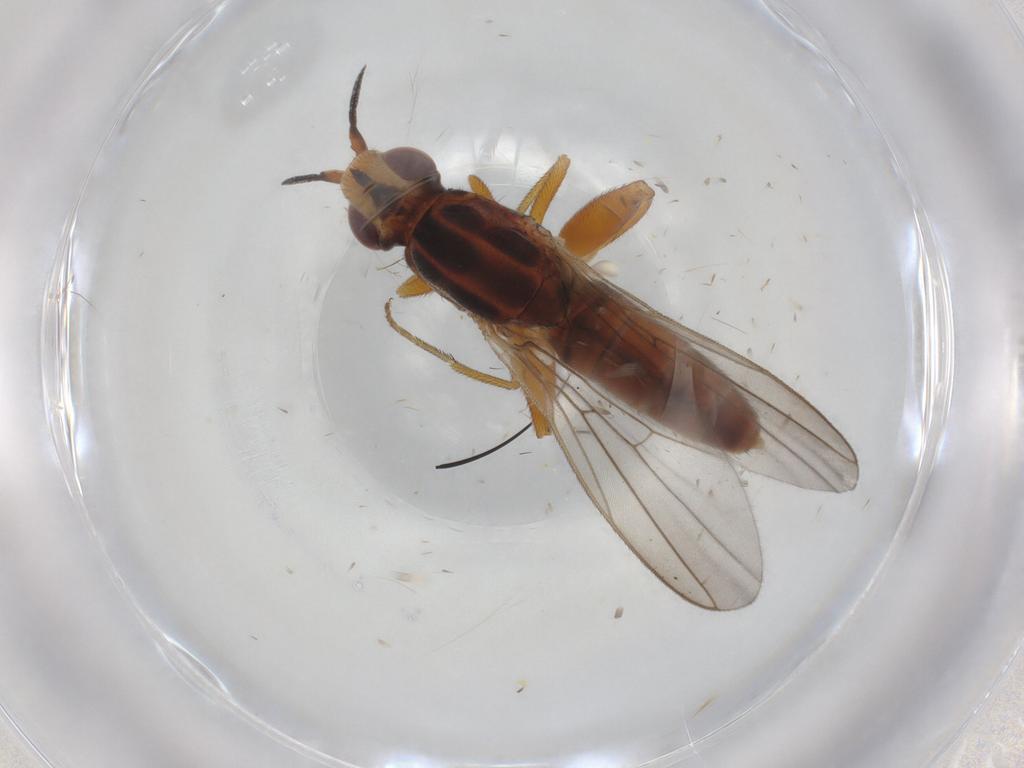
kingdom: Animalia
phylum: Arthropoda
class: Insecta
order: Diptera
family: Chloropidae
